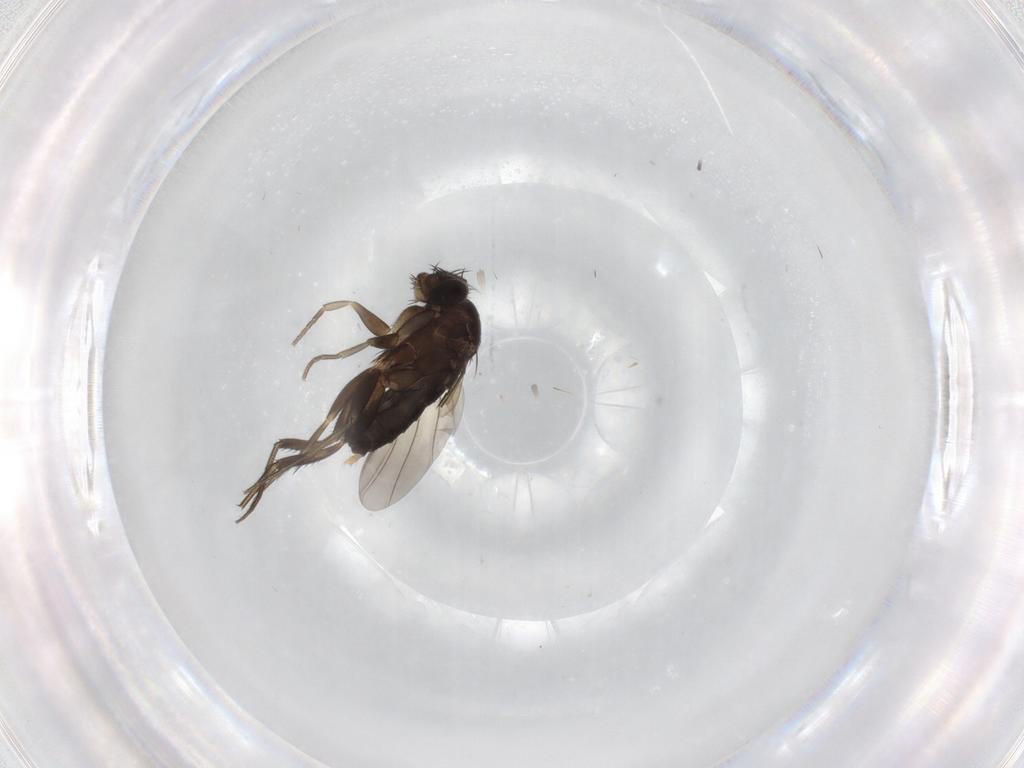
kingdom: Animalia
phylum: Arthropoda
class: Insecta
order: Diptera
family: Phoridae
